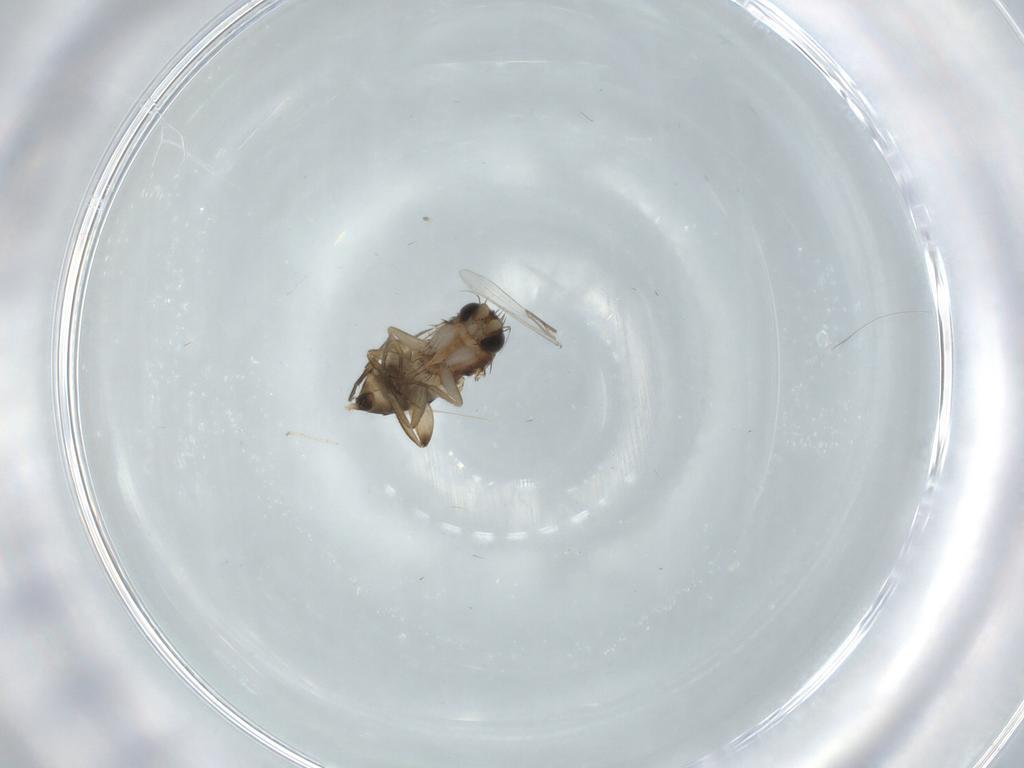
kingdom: Animalia
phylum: Arthropoda
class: Insecta
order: Diptera
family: Phoridae
